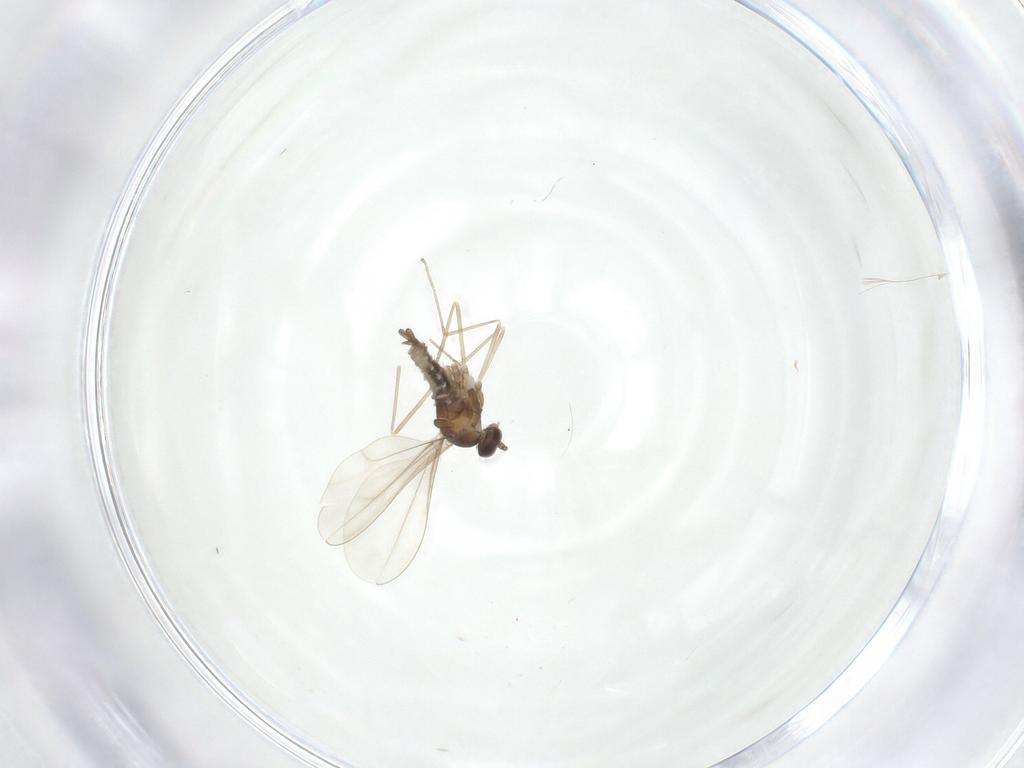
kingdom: Animalia
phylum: Arthropoda
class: Insecta
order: Diptera
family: Cecidomyiidae
